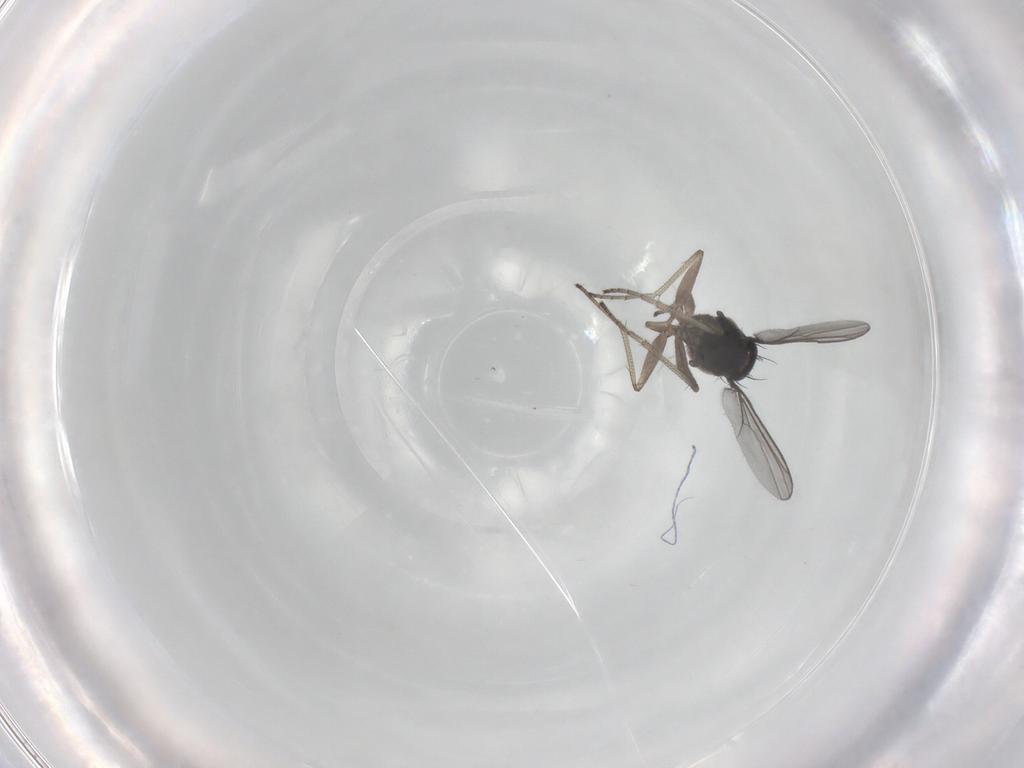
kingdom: Animalia
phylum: Arthropoda
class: Insecta
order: Diptera
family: Dolichopodidae
